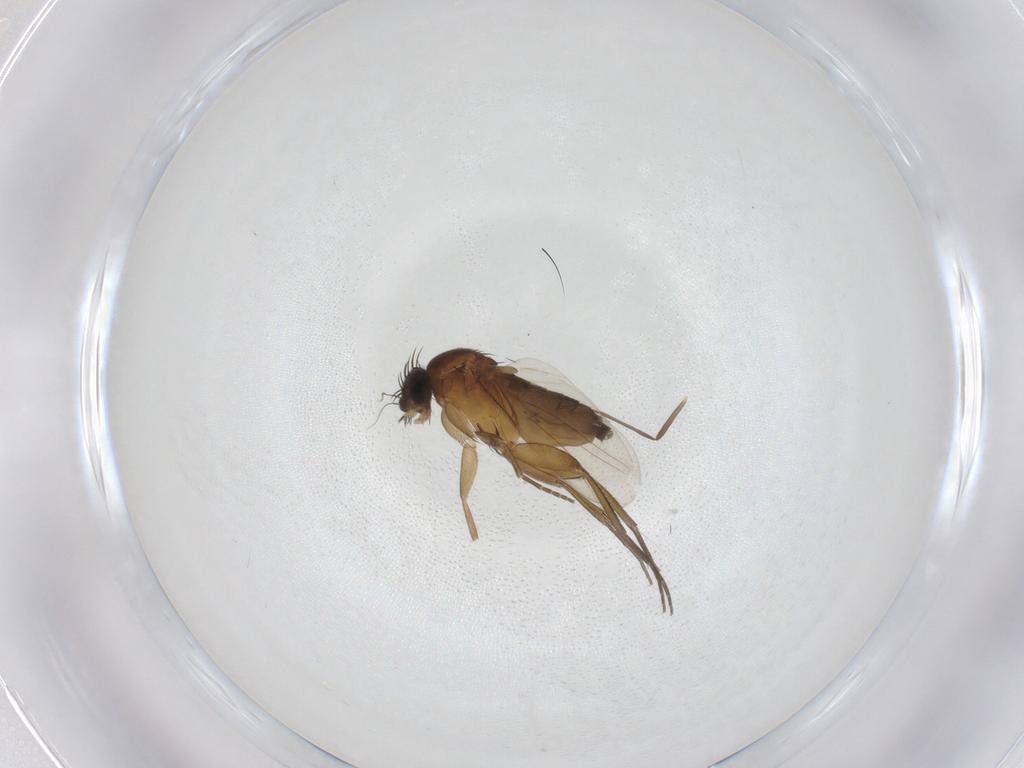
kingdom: Animalia
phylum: Arthropoda
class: Insecta
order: Diptera
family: Phoridae
